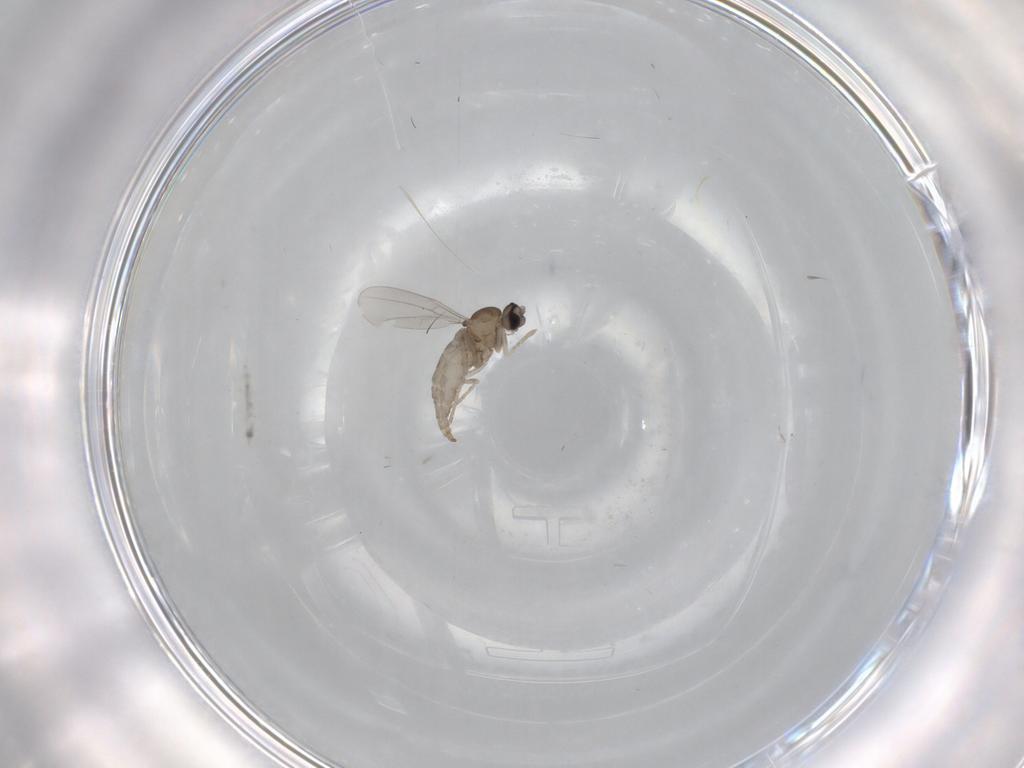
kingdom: Animalia
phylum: Arthropoda
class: Insecta
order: Diptera
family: Cecidomyiidae
